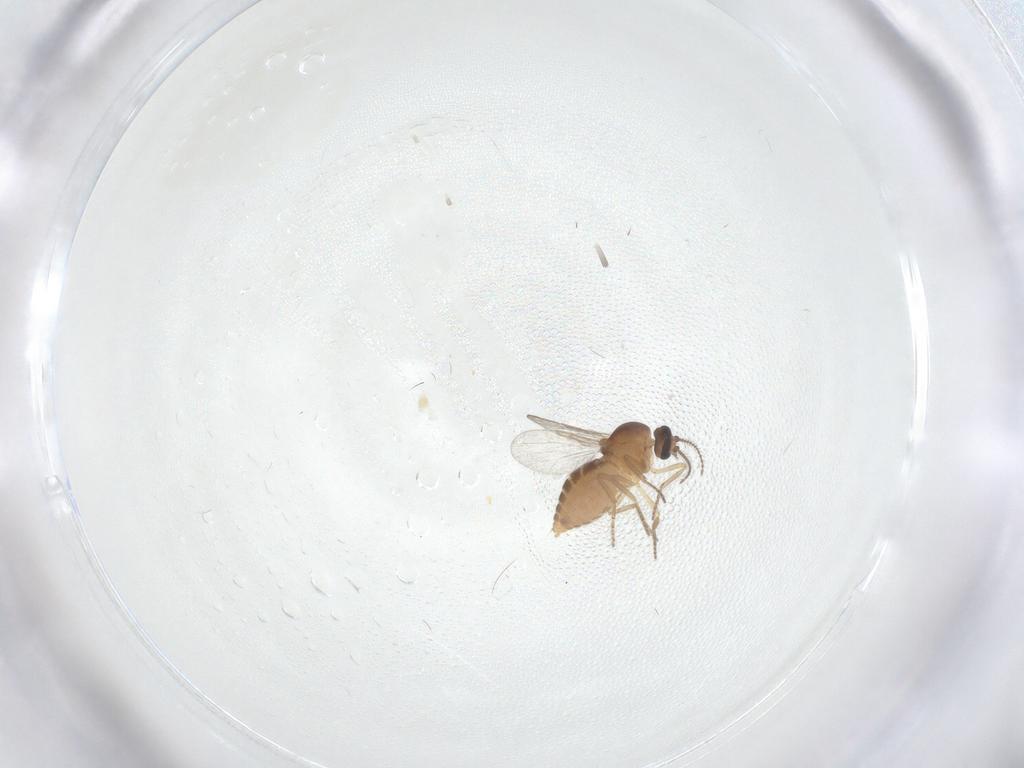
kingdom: Animalia
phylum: Arthropoda
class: Insecta
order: Diptera
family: Ceratopogonidae
